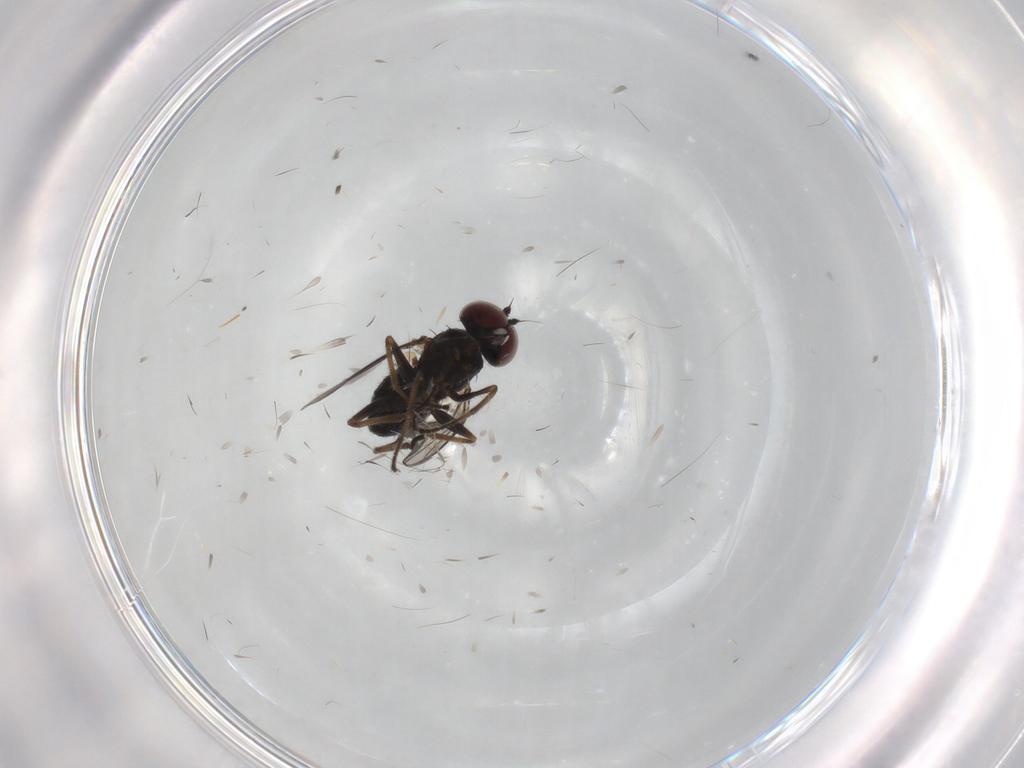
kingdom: Animalia
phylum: Arthropoda
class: Insecta
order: Diptera
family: Dolichopodidae
